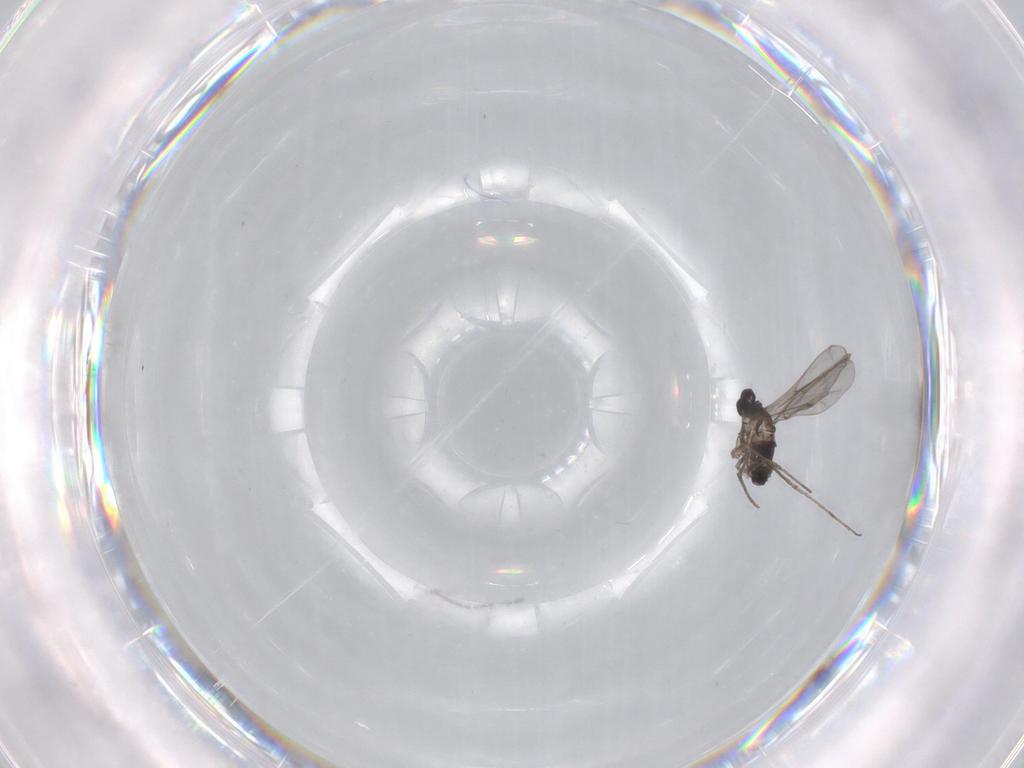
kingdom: Animalia
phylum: Arthropoda
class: Insecta
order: Diptera
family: Cecidomyiidae
